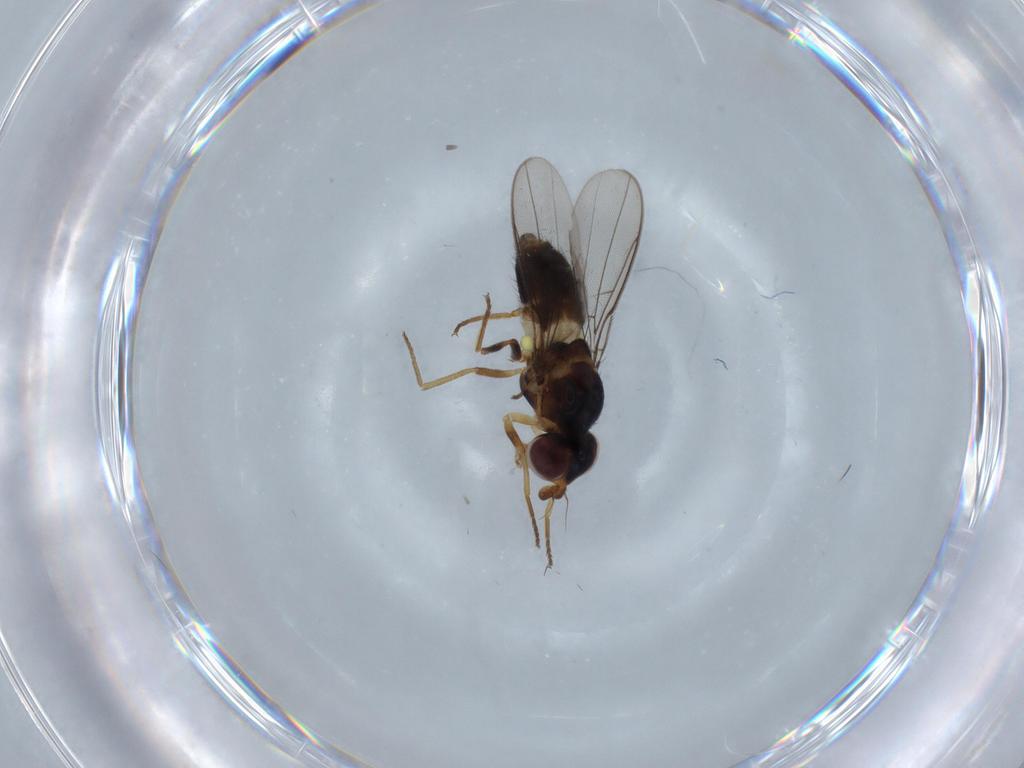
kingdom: Animalia
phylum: Arthropoda
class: Insecta
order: Diptera
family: Chloropidae
